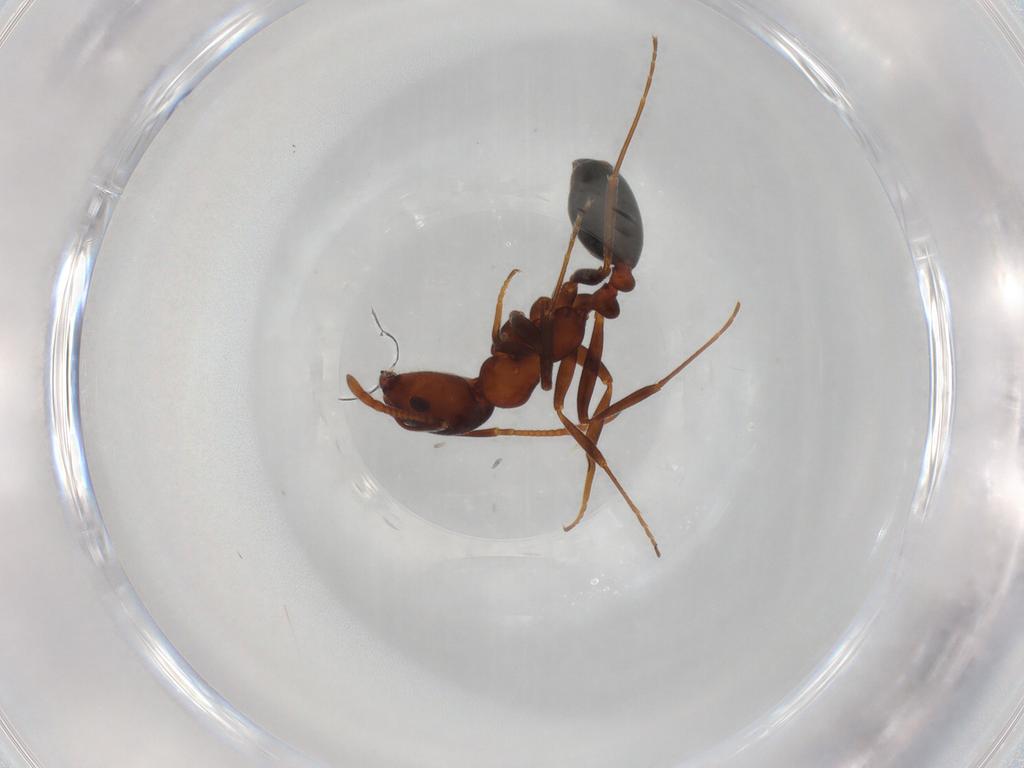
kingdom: Animalia
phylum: Arthropoda
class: Insecta
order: Hymenoptera
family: Formicidae
